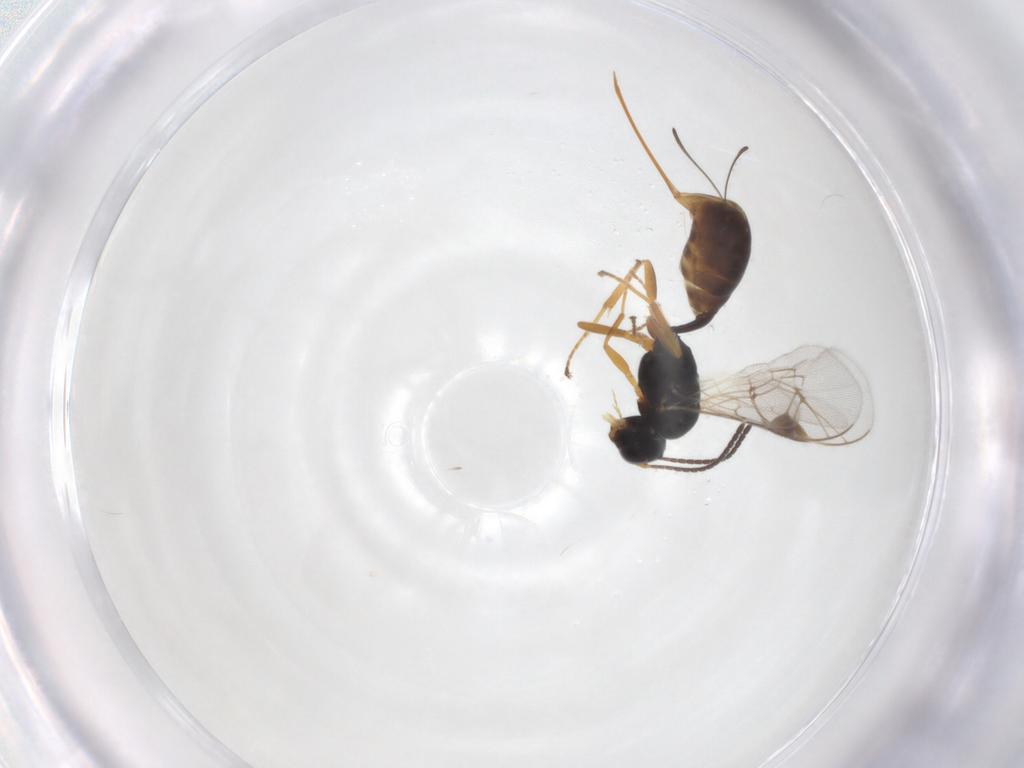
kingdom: Animalia
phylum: Arthropoda
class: Insecta
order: Hymenoptera
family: Ichneumonidae
